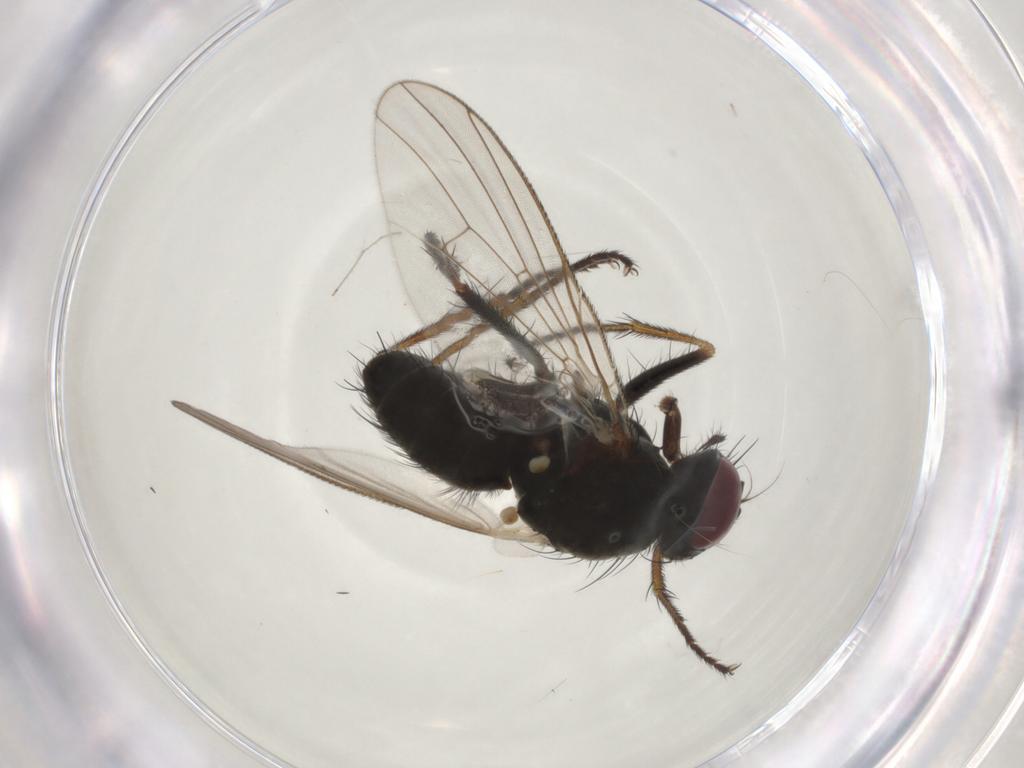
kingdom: Animalia
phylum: Arthropoda
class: Insecta
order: Diptera
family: Muscidae
